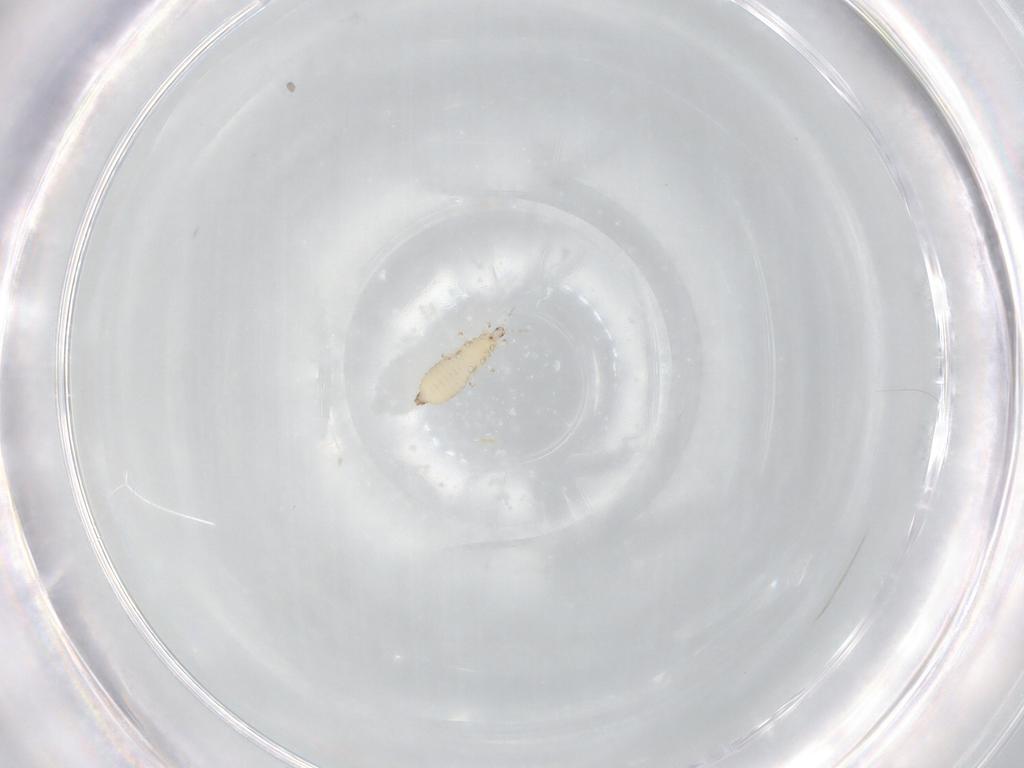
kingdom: Animalia
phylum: Arthropoda
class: Insecta
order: Thysanoptera
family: Thripidae
